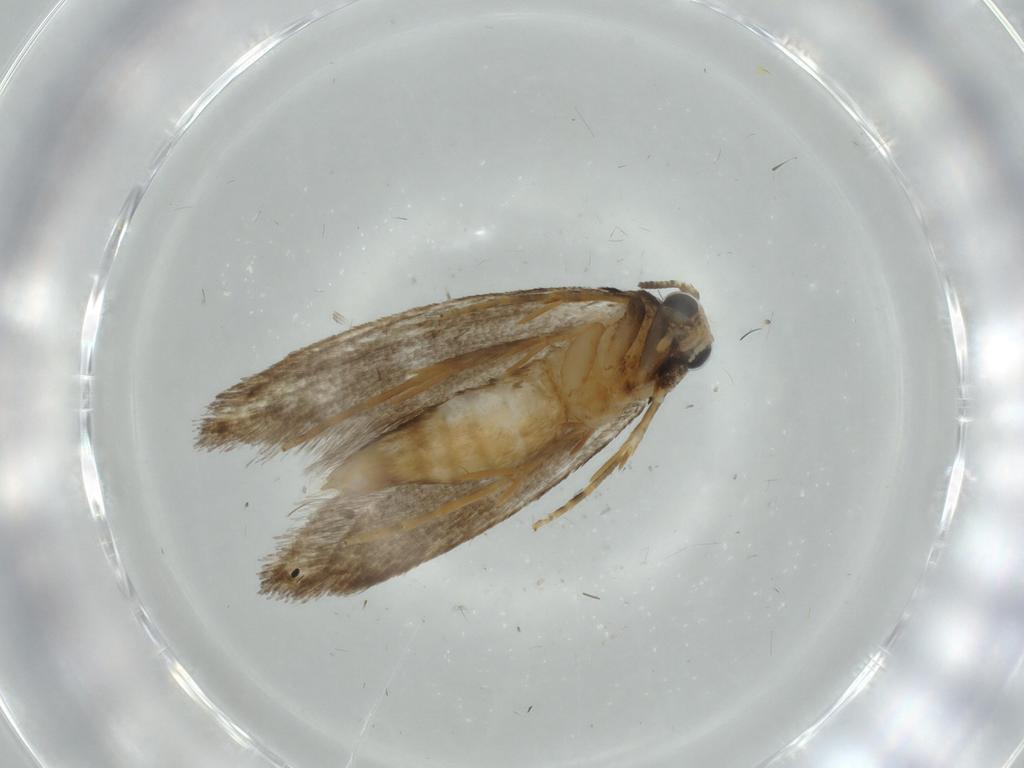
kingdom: Animalia
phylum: Arthropoda
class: Insecta
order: Lepidoptera
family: Tineidae
